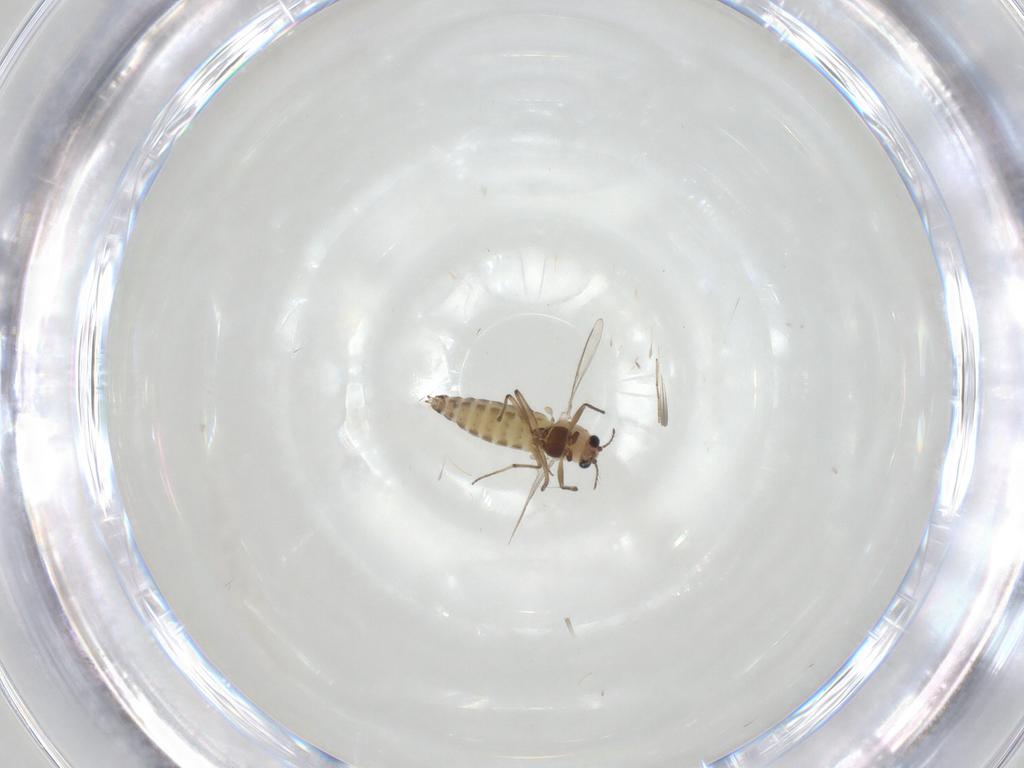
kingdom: Animalia
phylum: Arthropoda
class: Insecta
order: Diptera
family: Chironomidae
